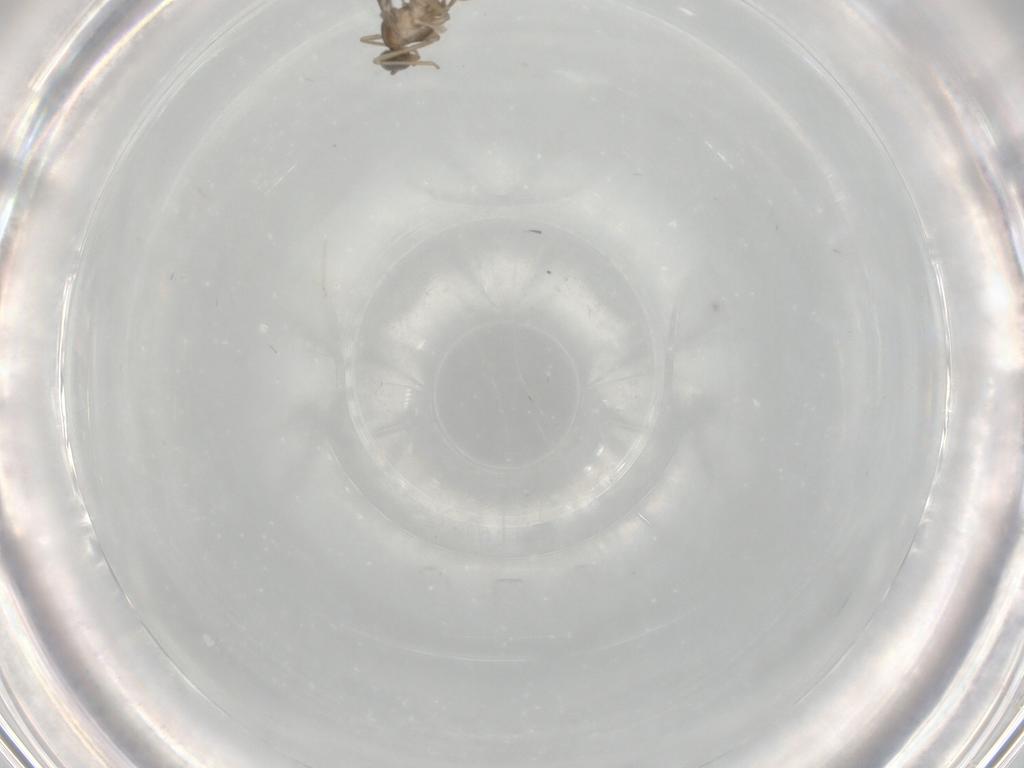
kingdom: Animalia
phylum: Arthropoda
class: Insecta
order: Diptera
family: Cecidomyiidae
